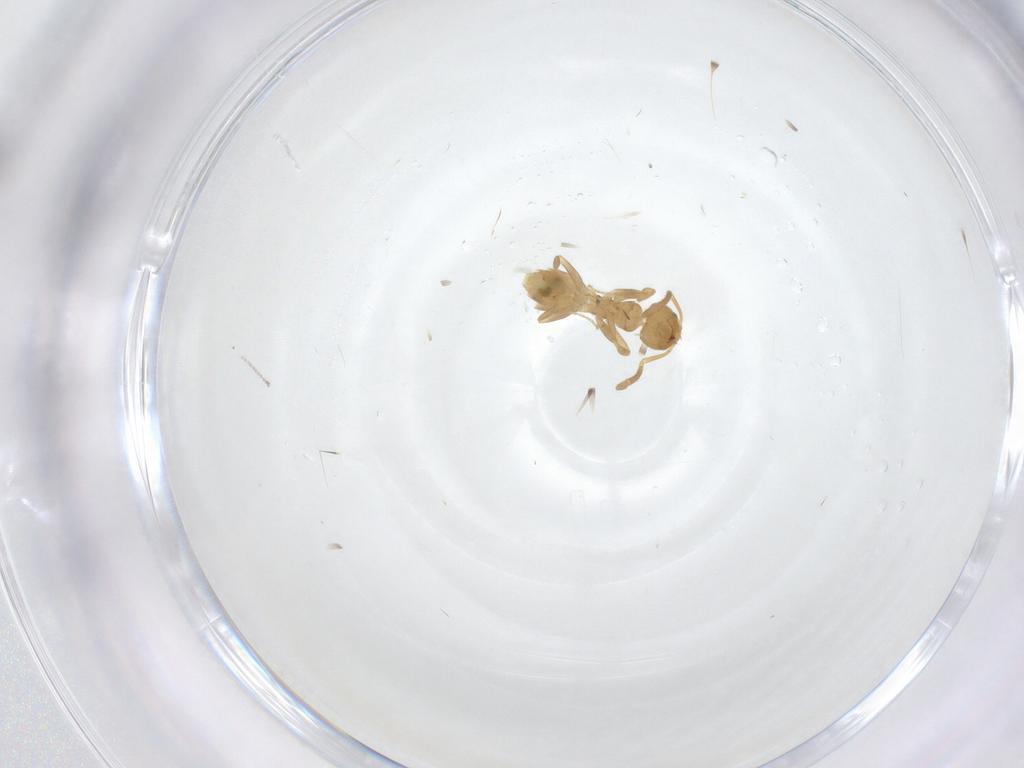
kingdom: Animalia
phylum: Arthropoda
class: Insecta
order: Hymenoptera
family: Formicidae
